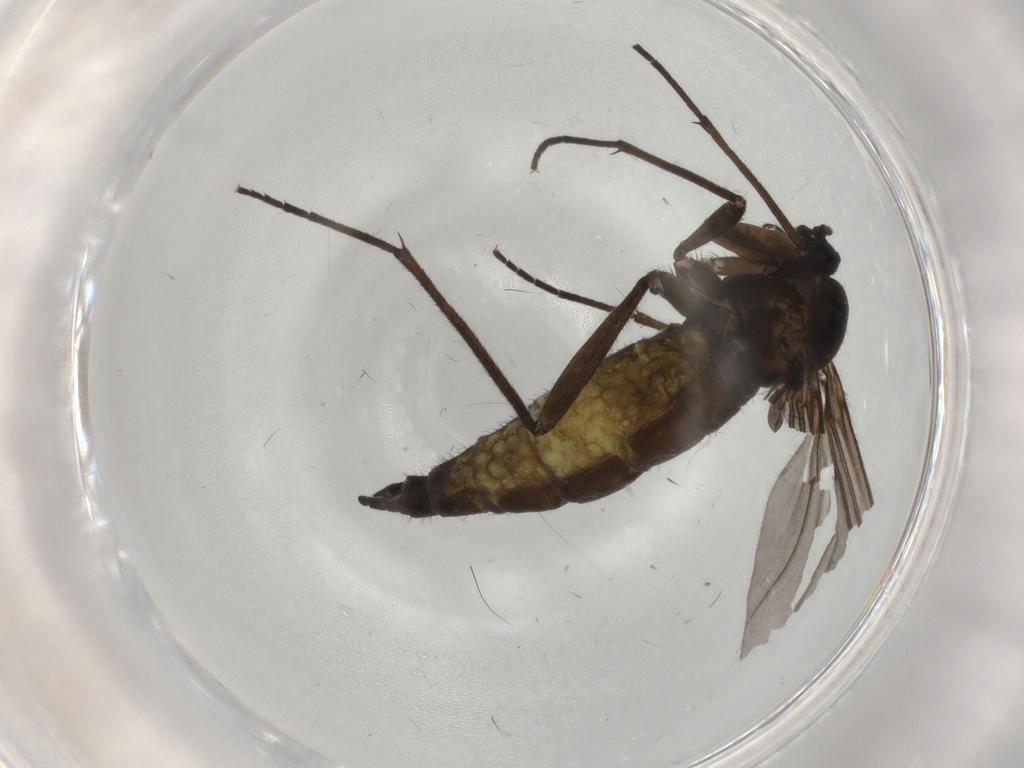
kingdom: Animalia
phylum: Arthropoda
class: Insecta
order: Diptera
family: Sciaridae
